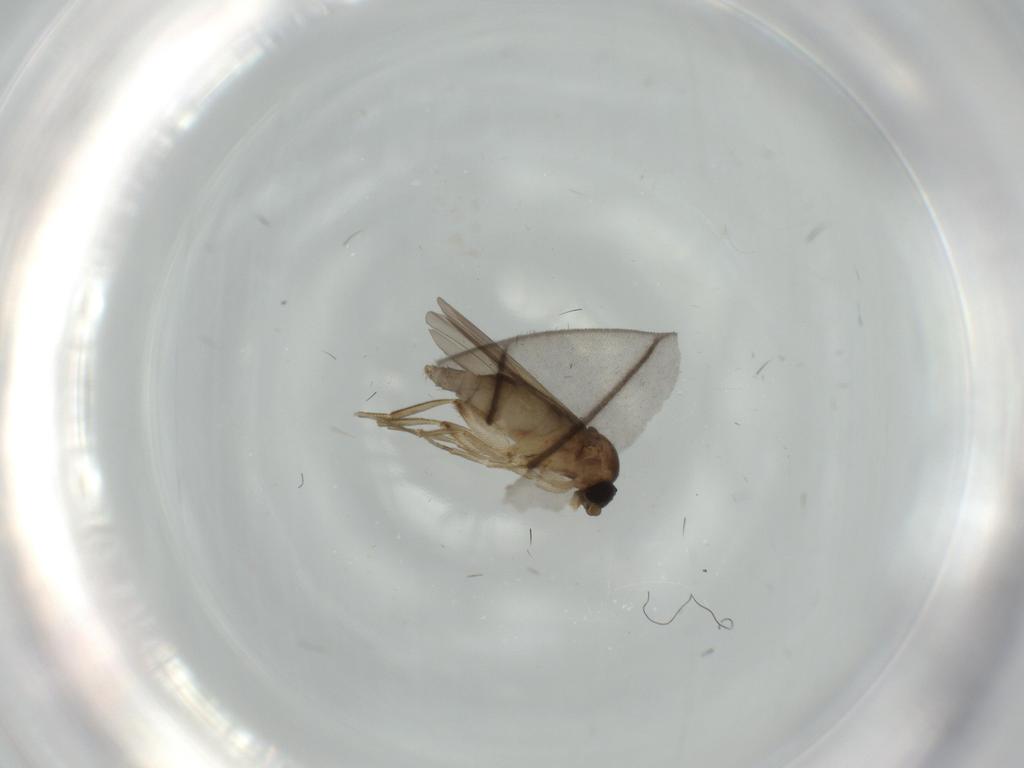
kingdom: Animalia
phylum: Arthropoda
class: Insecta
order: Diptera
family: Phoridae
